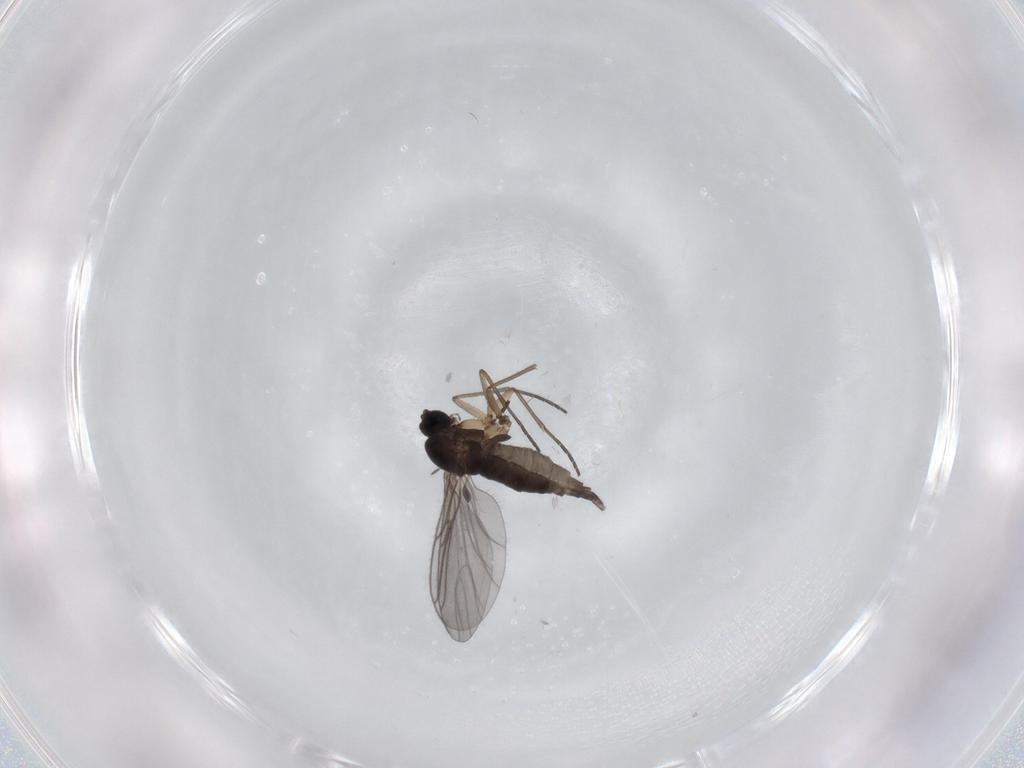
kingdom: Animalia
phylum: Arthropoda
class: Insecta
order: Diptera
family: Sciaridae
